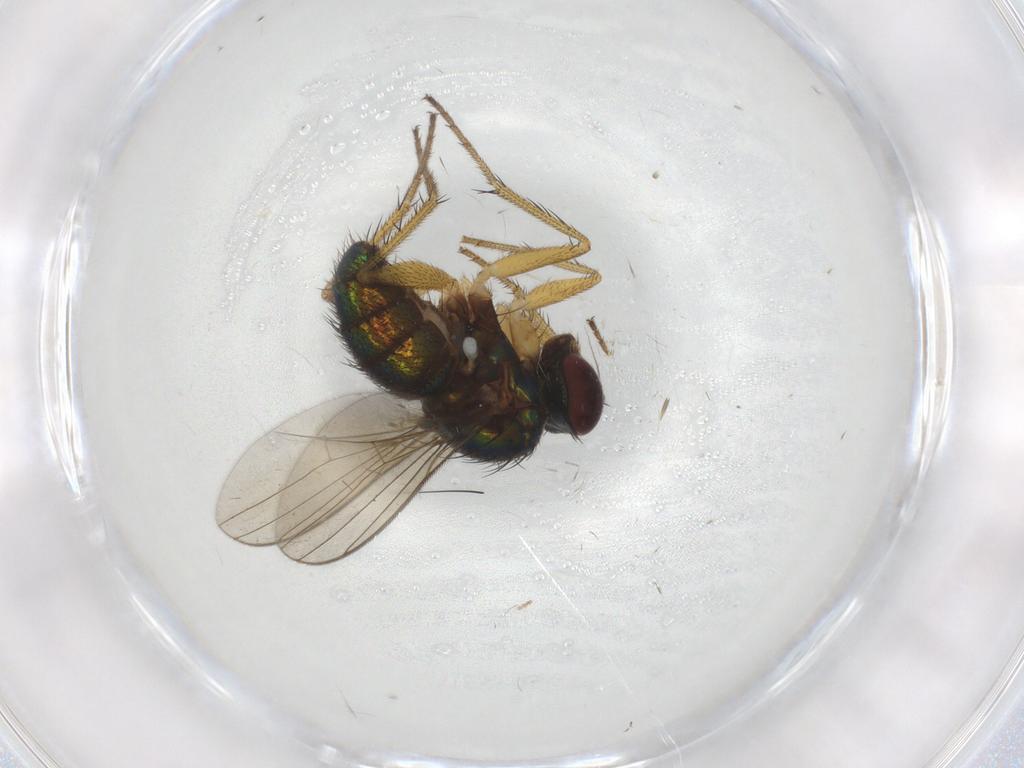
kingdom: Animalia
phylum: Arthropoda
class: Insecta
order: Diptera
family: Dolichopodidae
